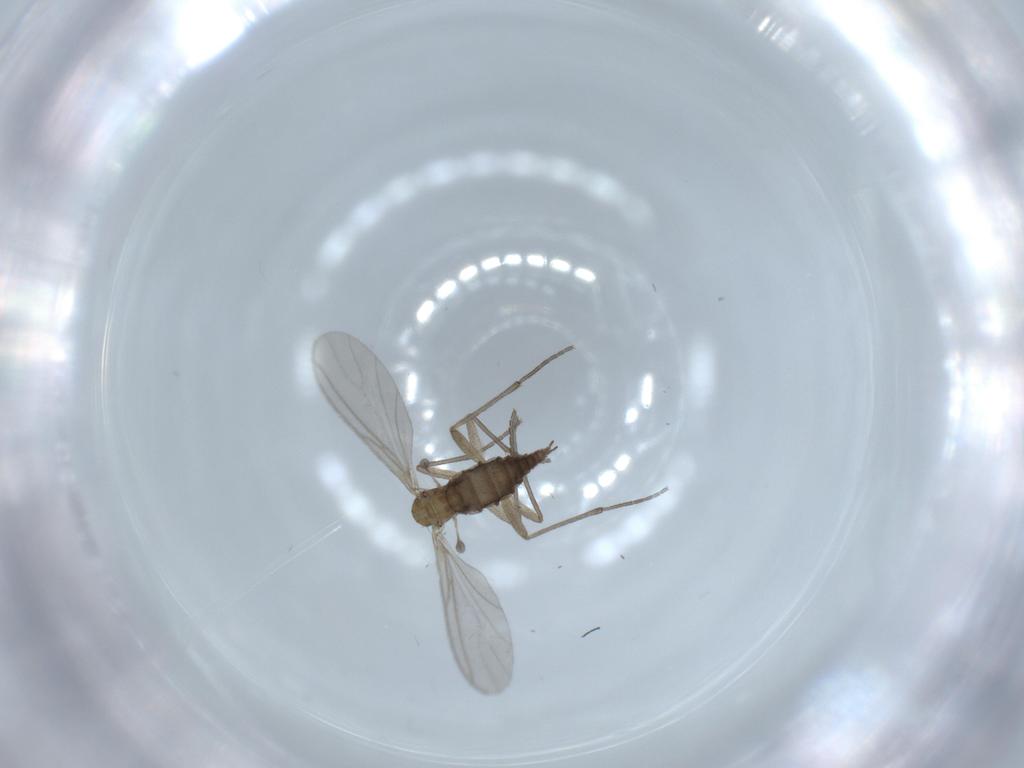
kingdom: Animalia
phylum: Arthropoda
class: Insecta
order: Diptera
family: Sciaridae
